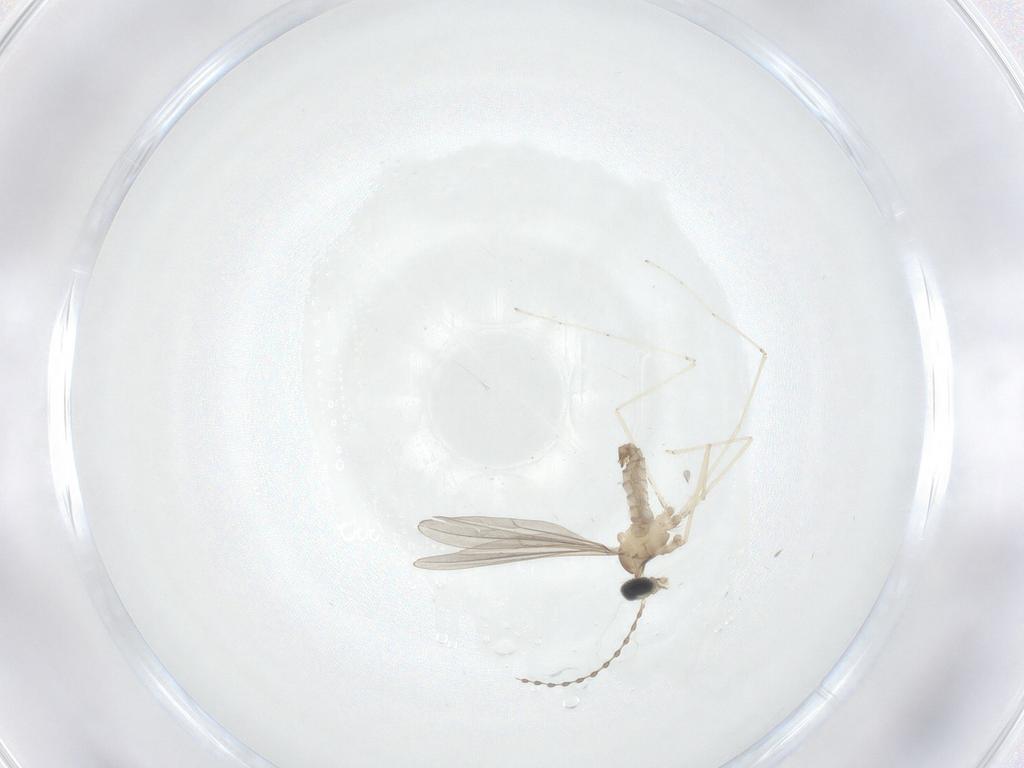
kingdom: Animalia
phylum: Arthropoda
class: Insecta
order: Diptera
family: Cecidomyiidae
